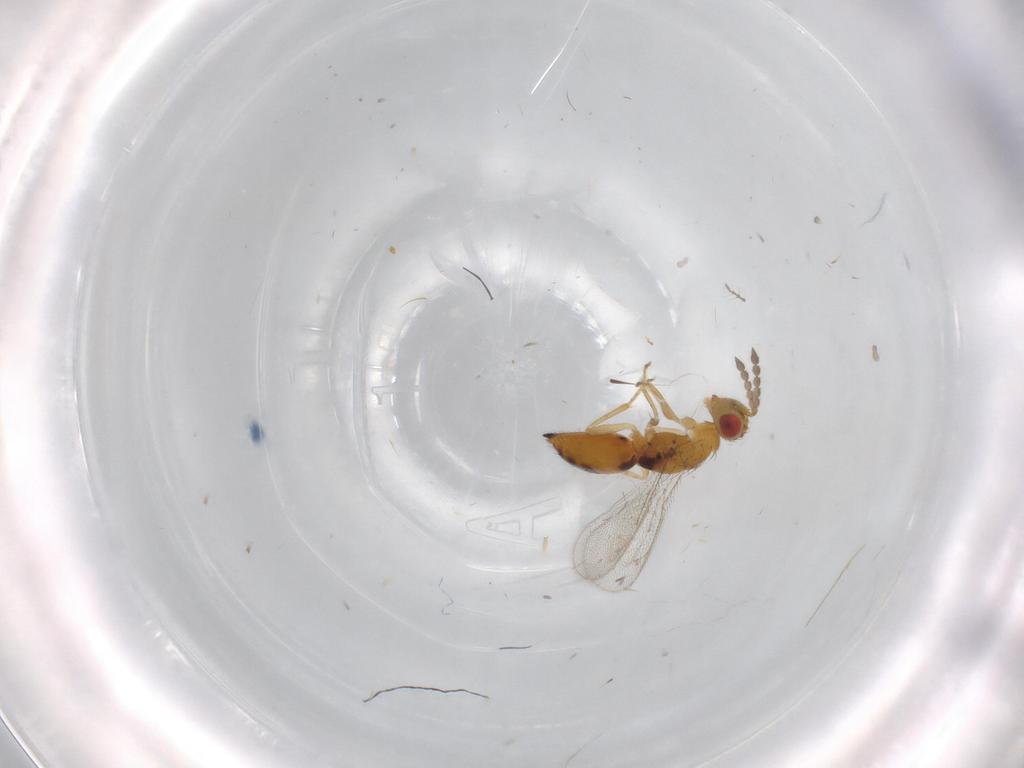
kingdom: Animalia
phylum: Arthropoda
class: Insecta
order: Hymenoptera
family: Eulophidae
